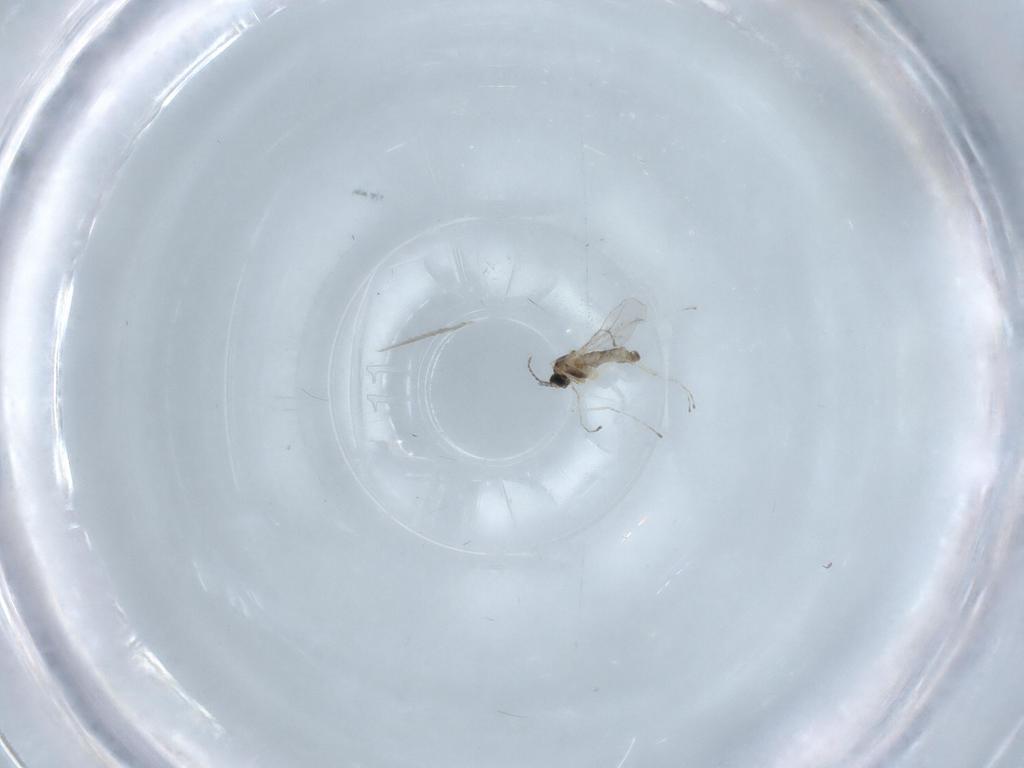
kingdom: Animalia
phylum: Arthropoda
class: Insecta
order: Diptera
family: Cecidomyiidae
